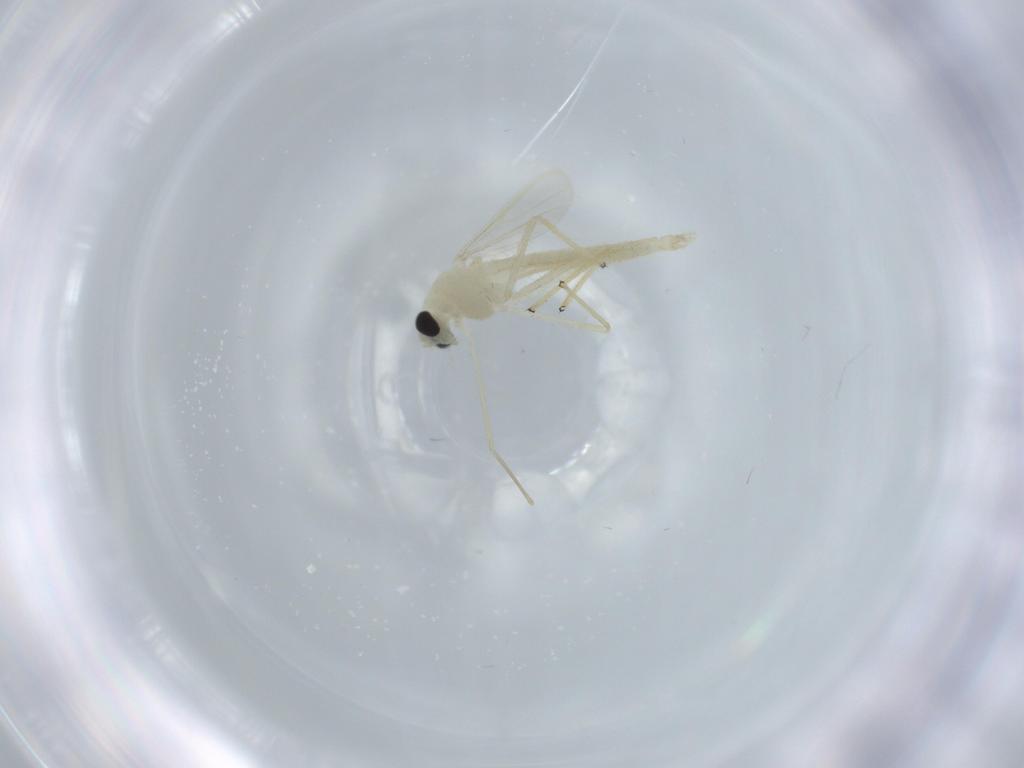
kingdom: Animalia
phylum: Arthropoda
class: Insecta
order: Diptera
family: Chironomidae
